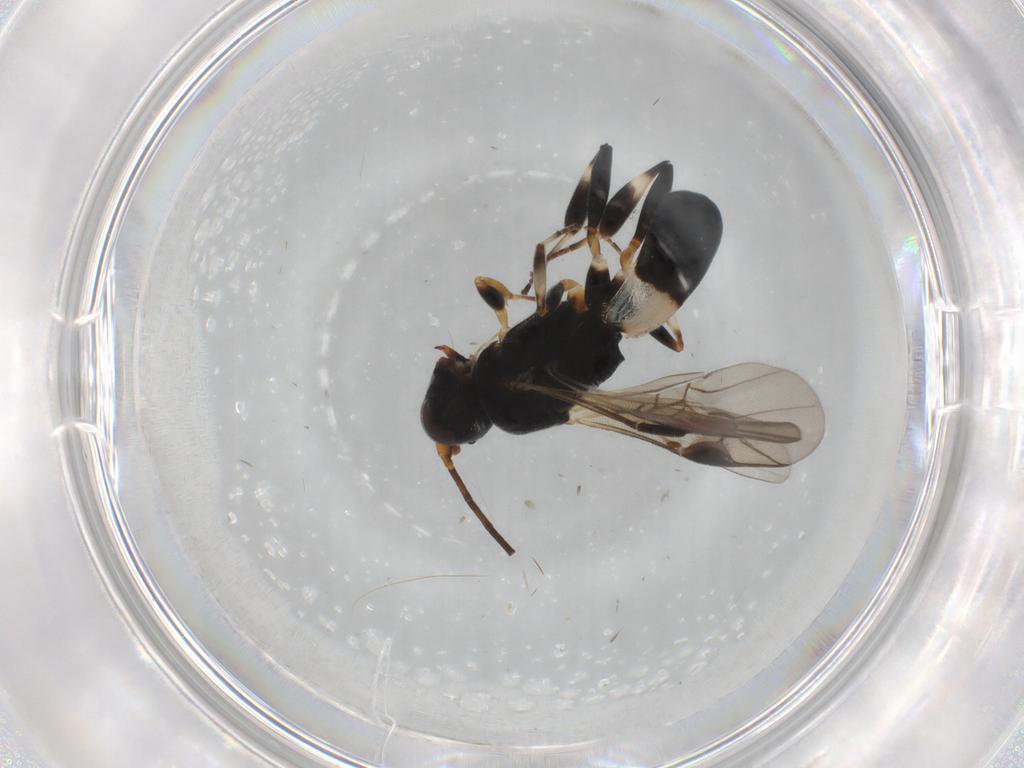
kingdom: Animalia
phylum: Arthropoda
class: Insecta
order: Hymenoptera
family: Braconidae
